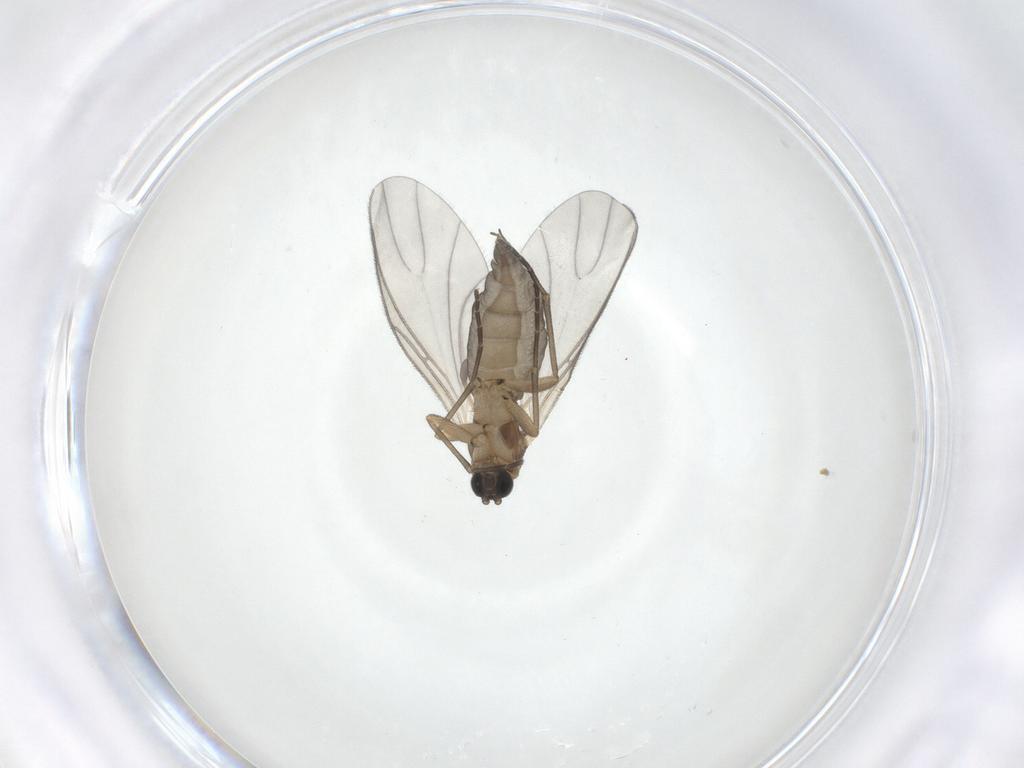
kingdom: Animalia
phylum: Arthropoda
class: Insecta
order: Diptera
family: Sciaridae
